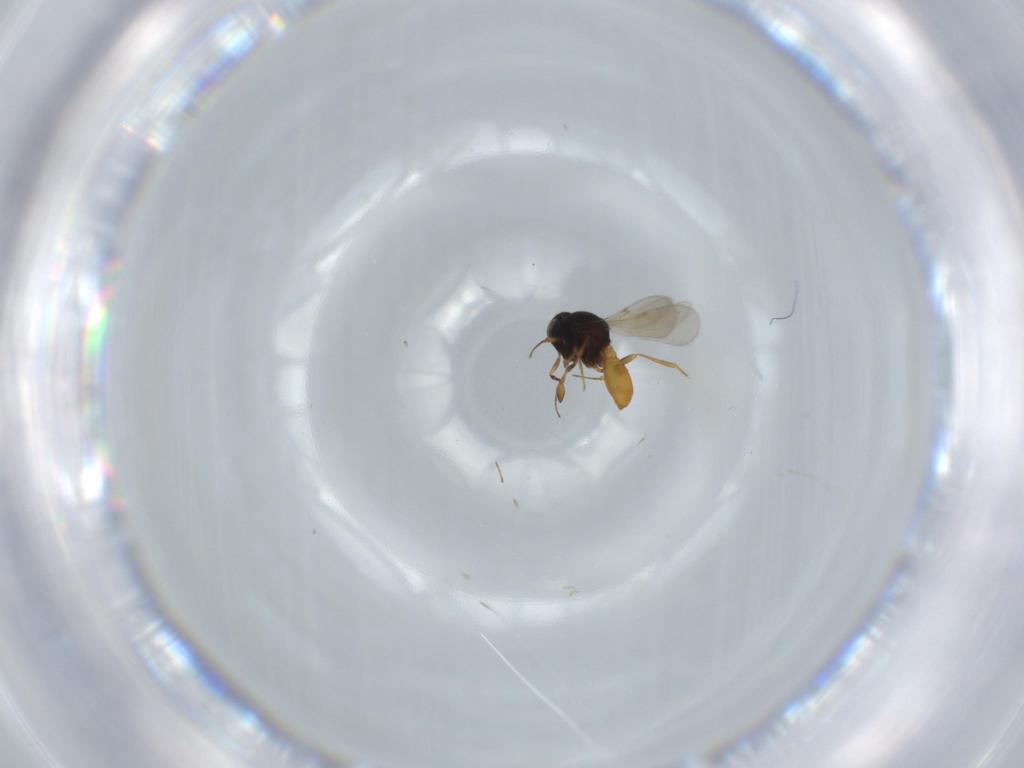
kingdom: Animalia
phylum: Arthropoda
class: Insecta
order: Hymenoptera
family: Scelionidae
